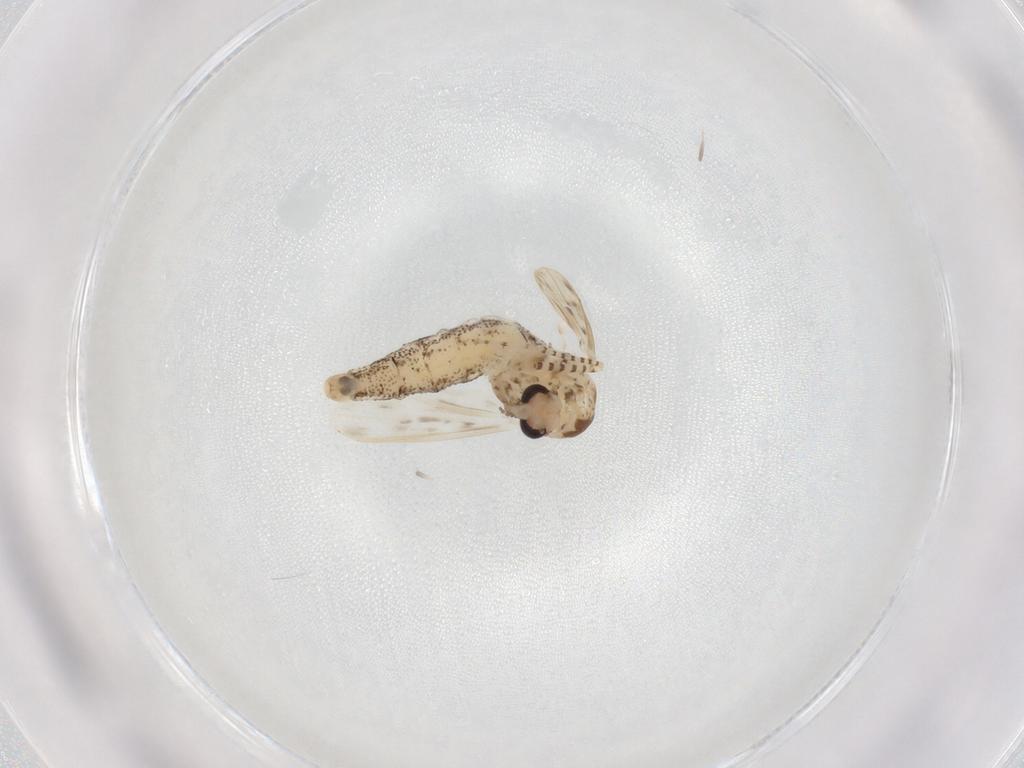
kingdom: Animalia
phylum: Arthropoda
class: Insecta
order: Diptera
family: Chaoboridae
